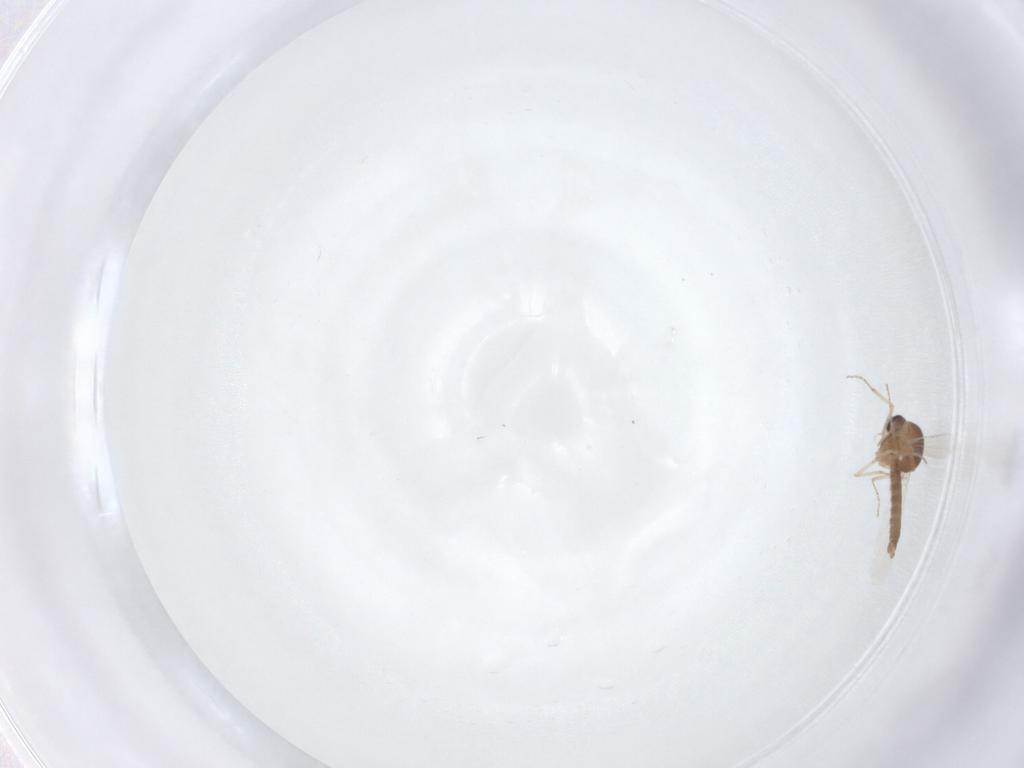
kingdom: Animalia
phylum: Arthropoda
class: Insecta
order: Diptera
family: Ceratopogonidae
